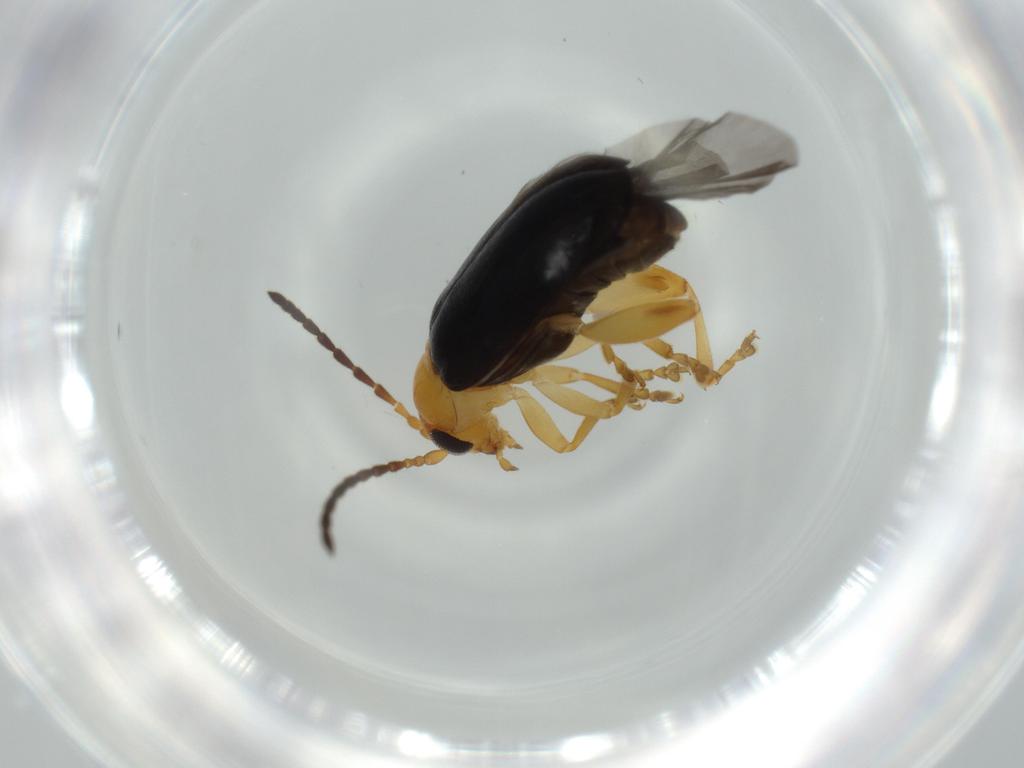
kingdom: Animalia
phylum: Arthropoda
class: Insecta
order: Coleoptera
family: Chrysomelidae
